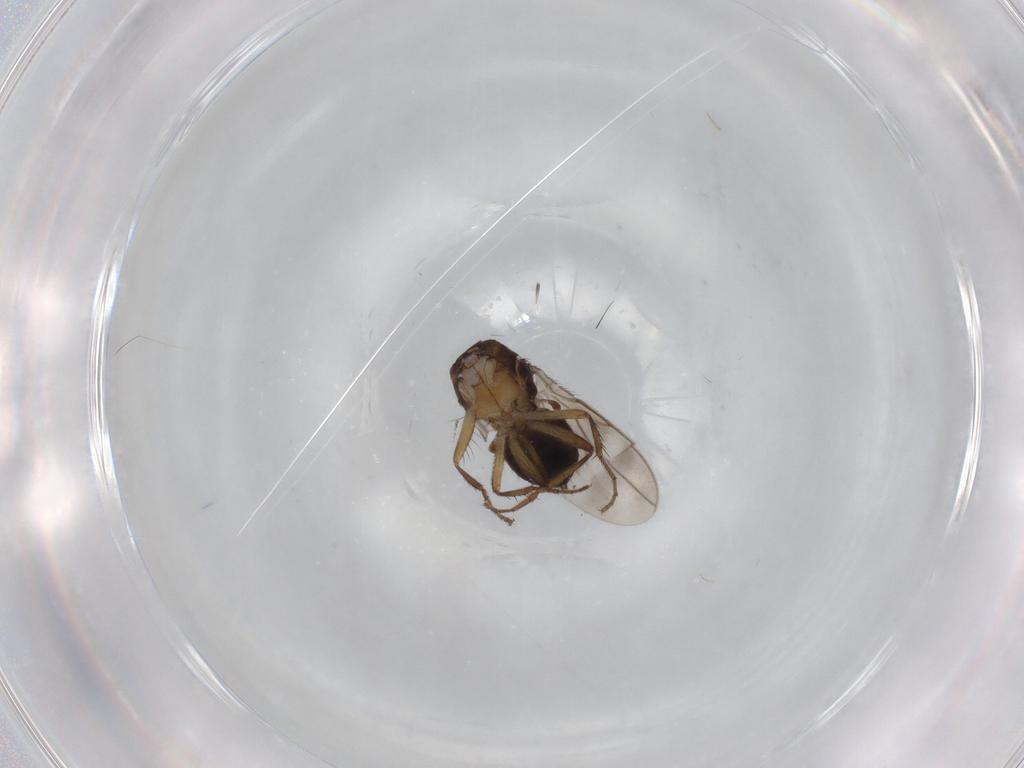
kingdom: Animalia
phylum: Arthropoda
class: Insecta
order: Diptera
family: Sphaeroceridae
